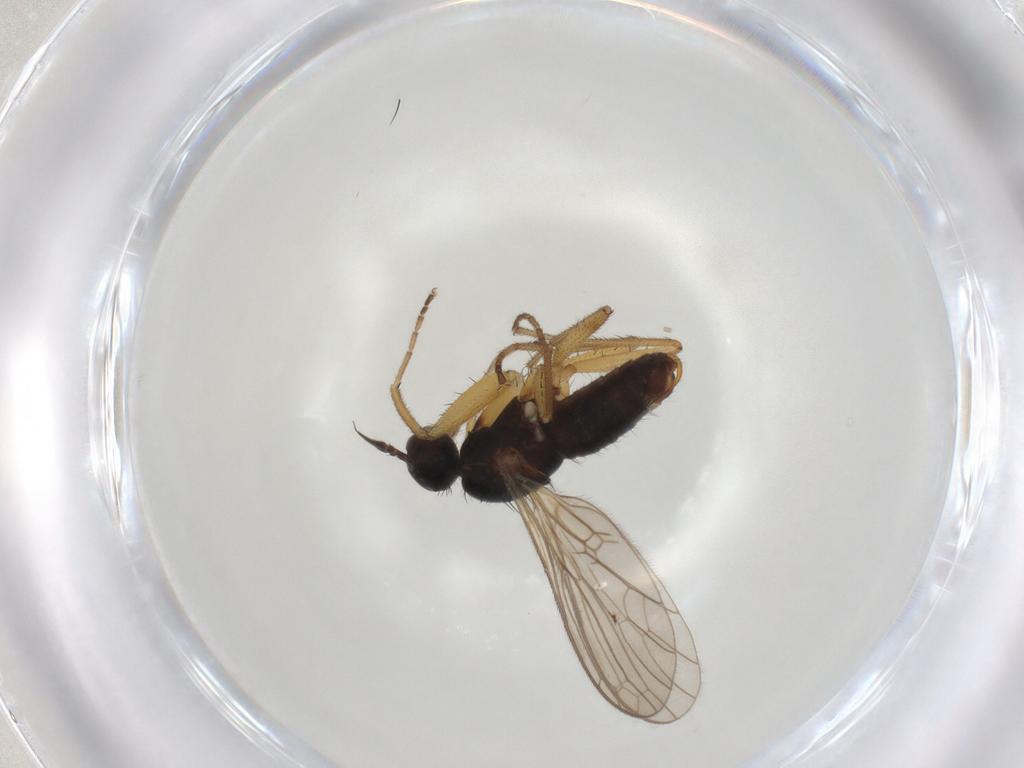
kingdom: Animalia
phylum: Arthropoda
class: Insecta
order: Diptera
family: Empididae
